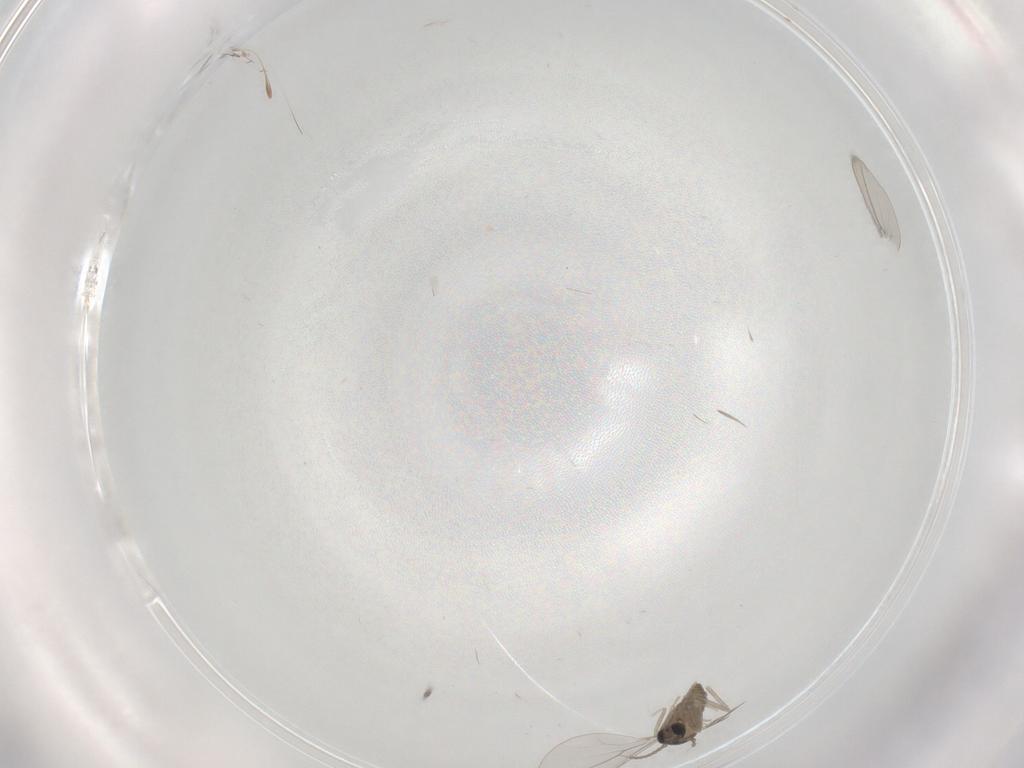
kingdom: Animalia
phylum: Arthropoda
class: Insecta
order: Diptera
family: Cecidomyiidae
